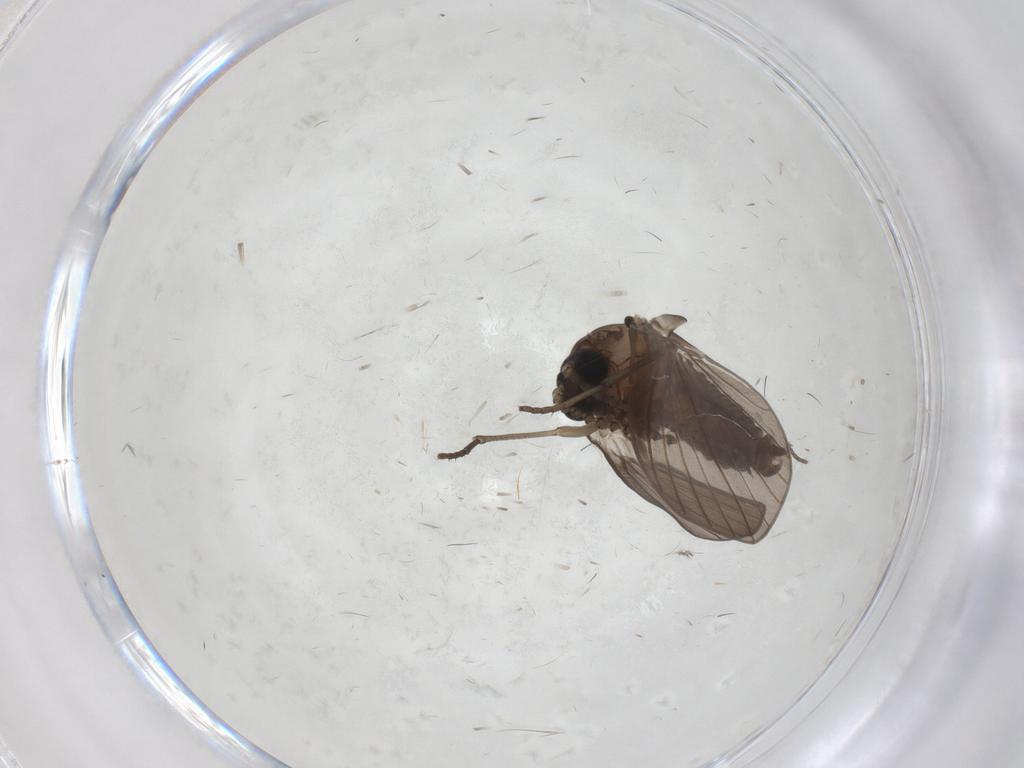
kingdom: Animalia
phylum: Arthropoda
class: Insecta
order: Diptera
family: Psychodidae
